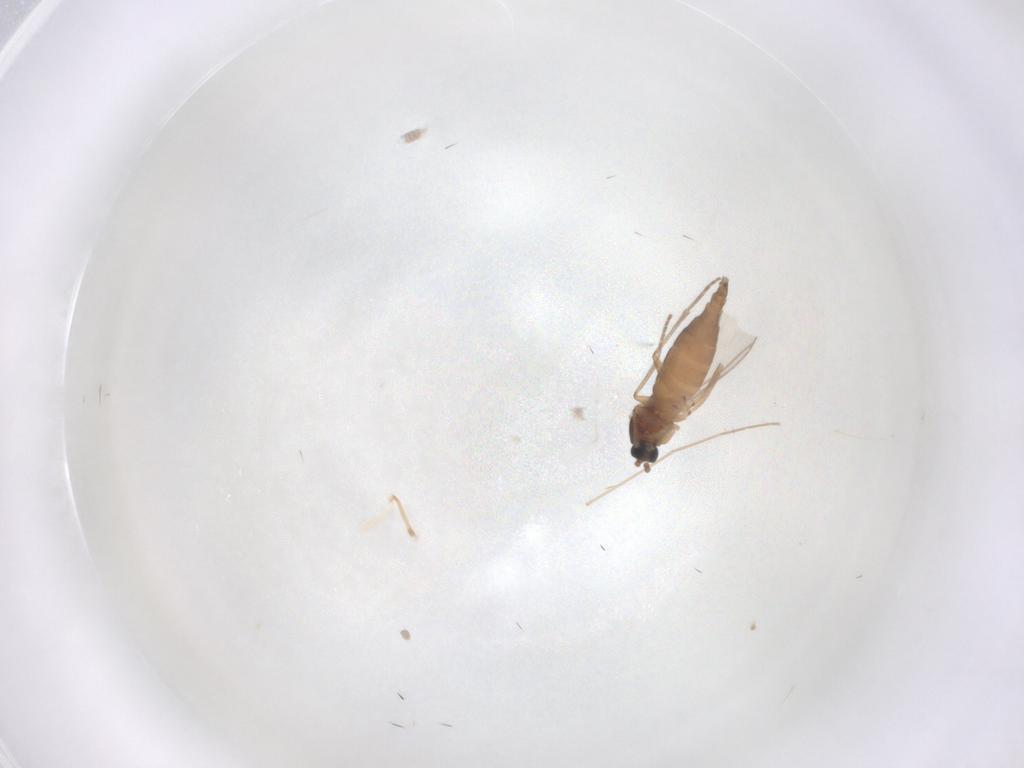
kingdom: Animalia
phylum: Arthropoda
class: Insecta
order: Diptera
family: Sciaridae
